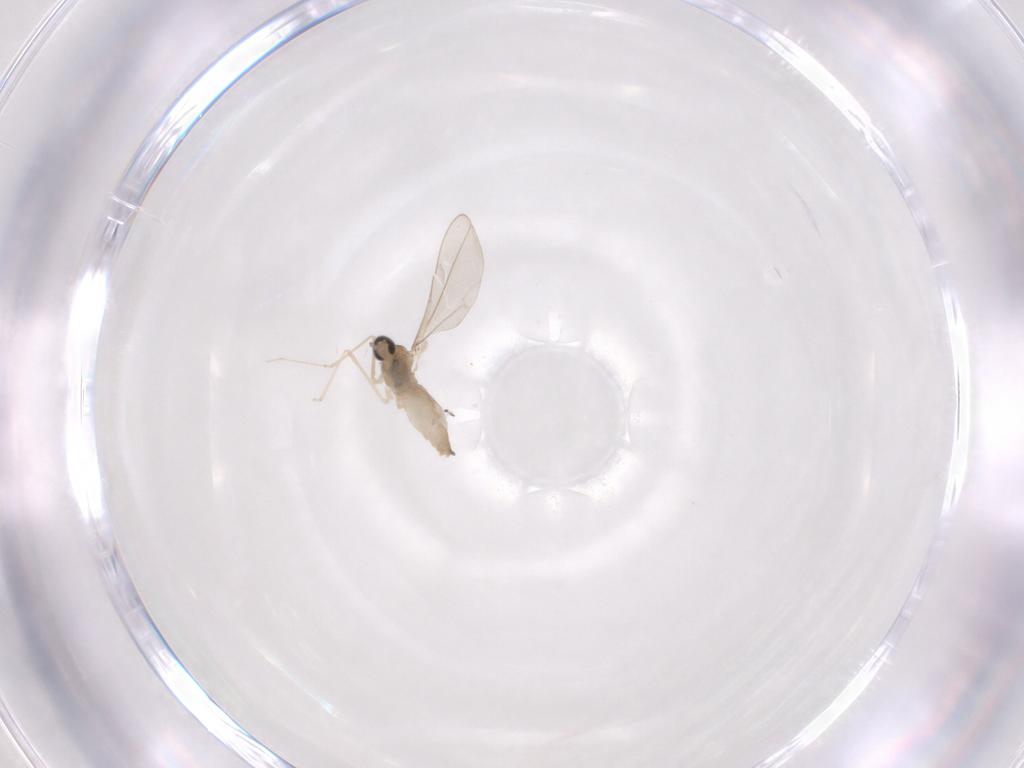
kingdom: Animalia
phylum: Arthropoda
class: Insecta
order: Diptera
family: Cecidomyiidae
